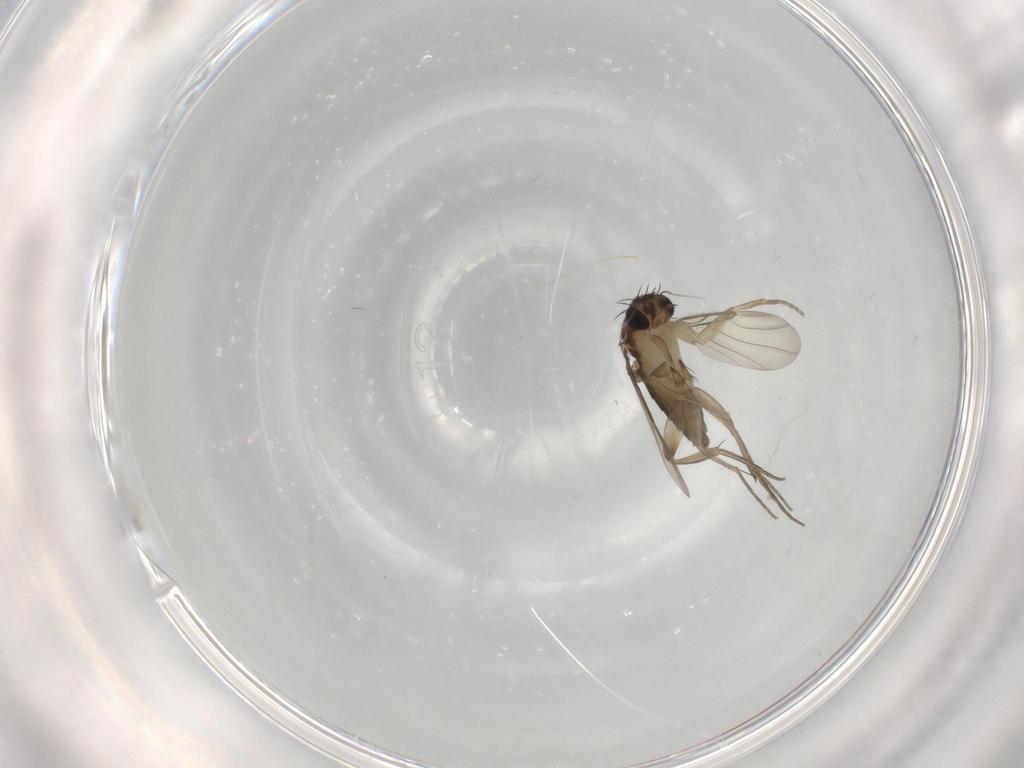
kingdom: Animalia
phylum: Arthropoda
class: Insecta
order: Diptera
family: Phoridae
